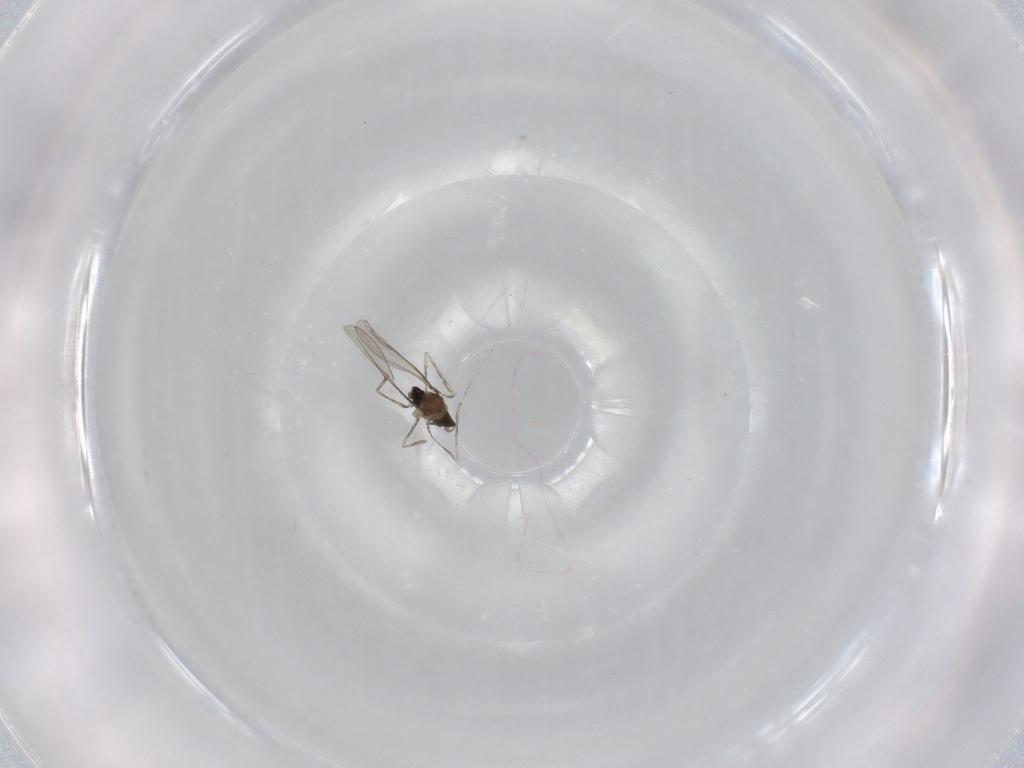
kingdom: Animalia
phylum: Arthropoda
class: Insecta
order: Diptera
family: Cecidomyiidae
